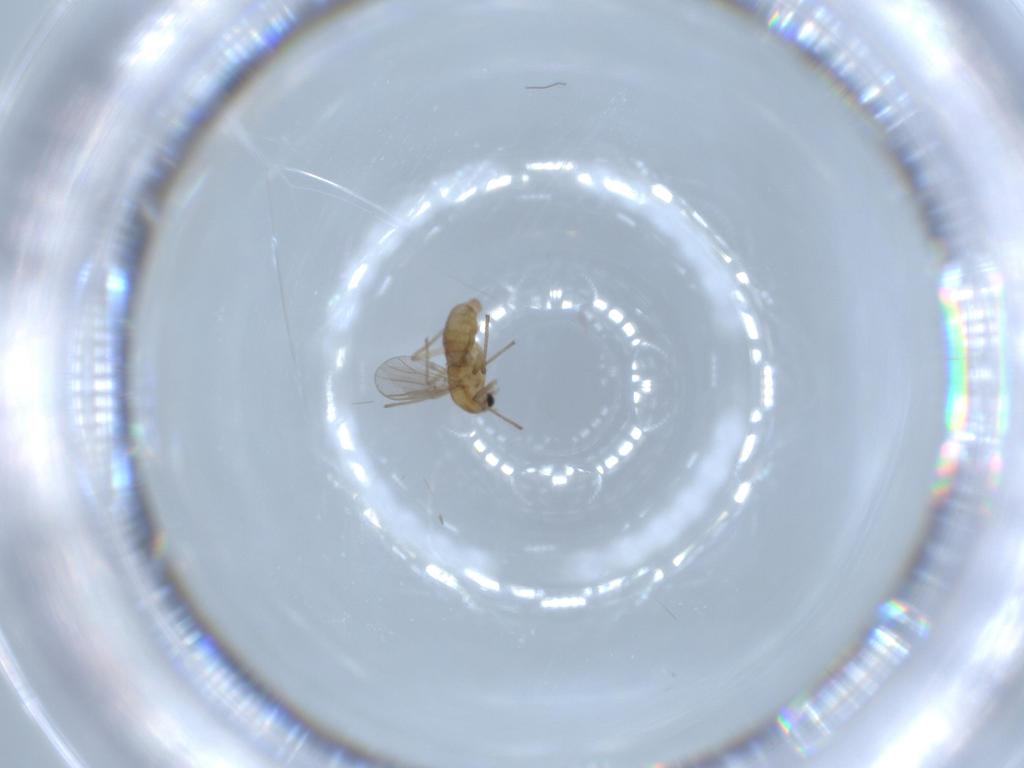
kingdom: Animalia
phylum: Arthropoda
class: Insecta
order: Diptera
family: Chironomidae
